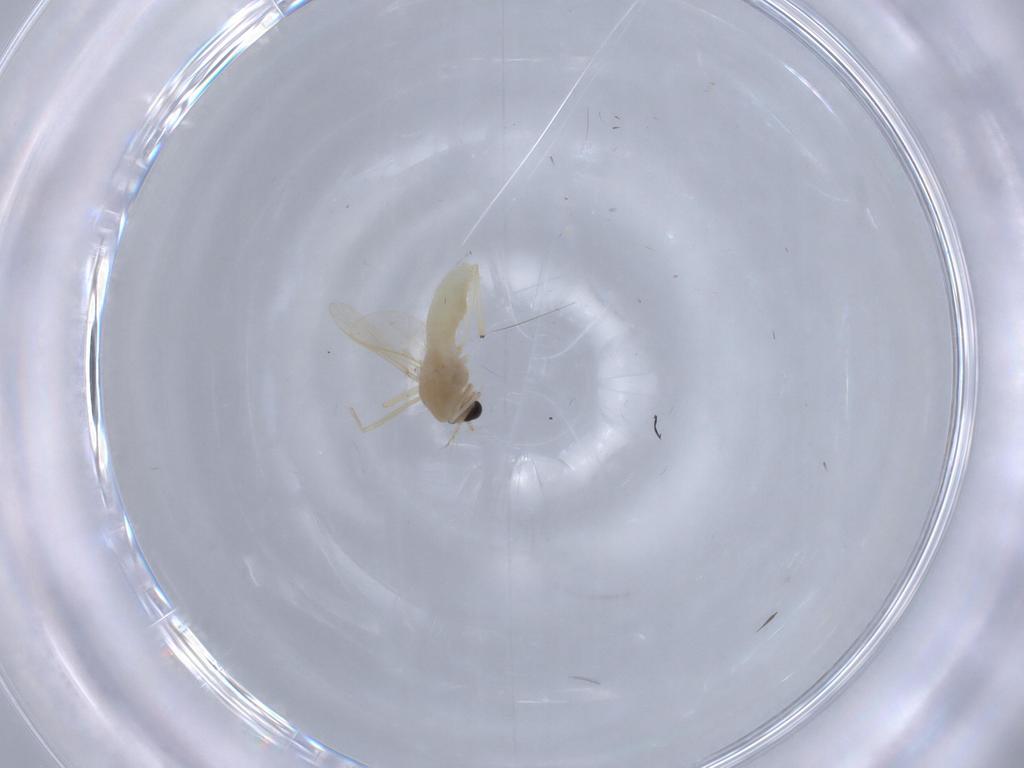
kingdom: Animalia
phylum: Arthropoda
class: Insecta
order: Diptera
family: Chironomidae
